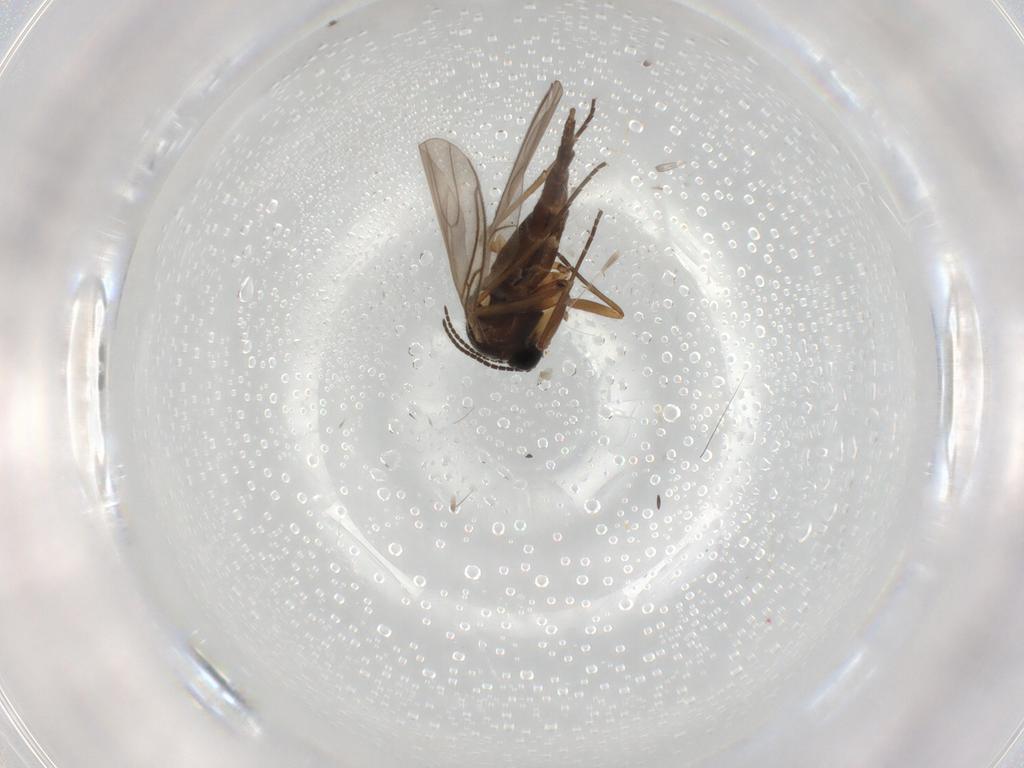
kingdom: Animalia
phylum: Arthropoda
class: Insecta
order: Diptera
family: Sciaridae
